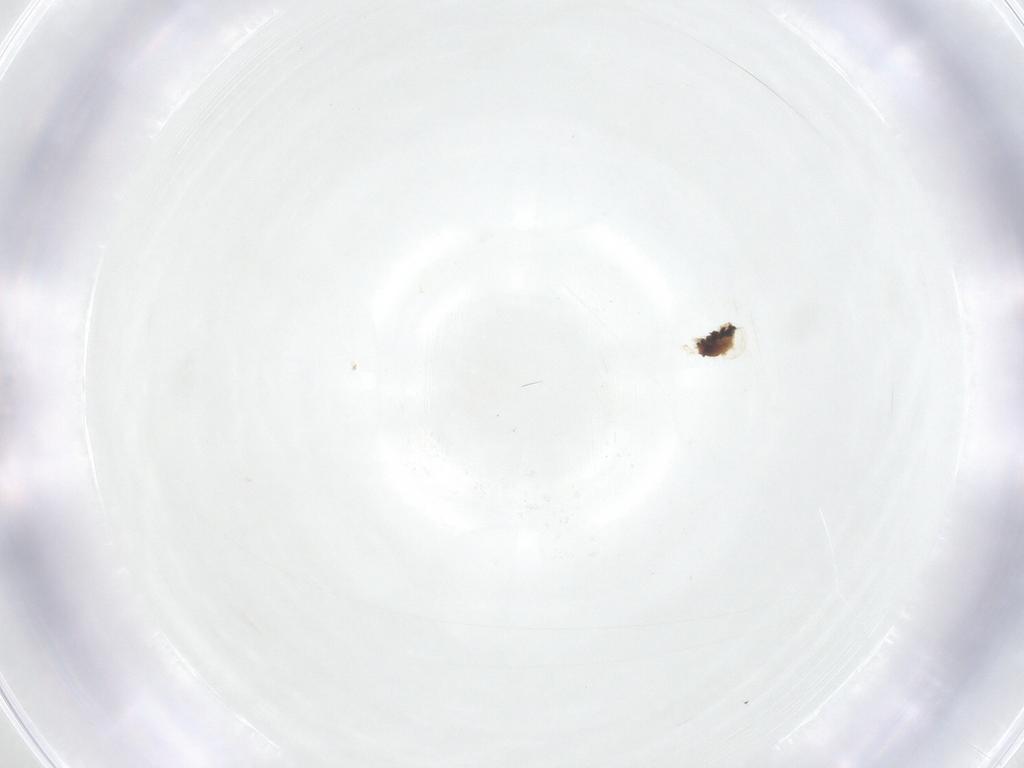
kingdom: Animalia
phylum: Arthropoda
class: Insecta
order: Diptera
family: Fergusoninidae
